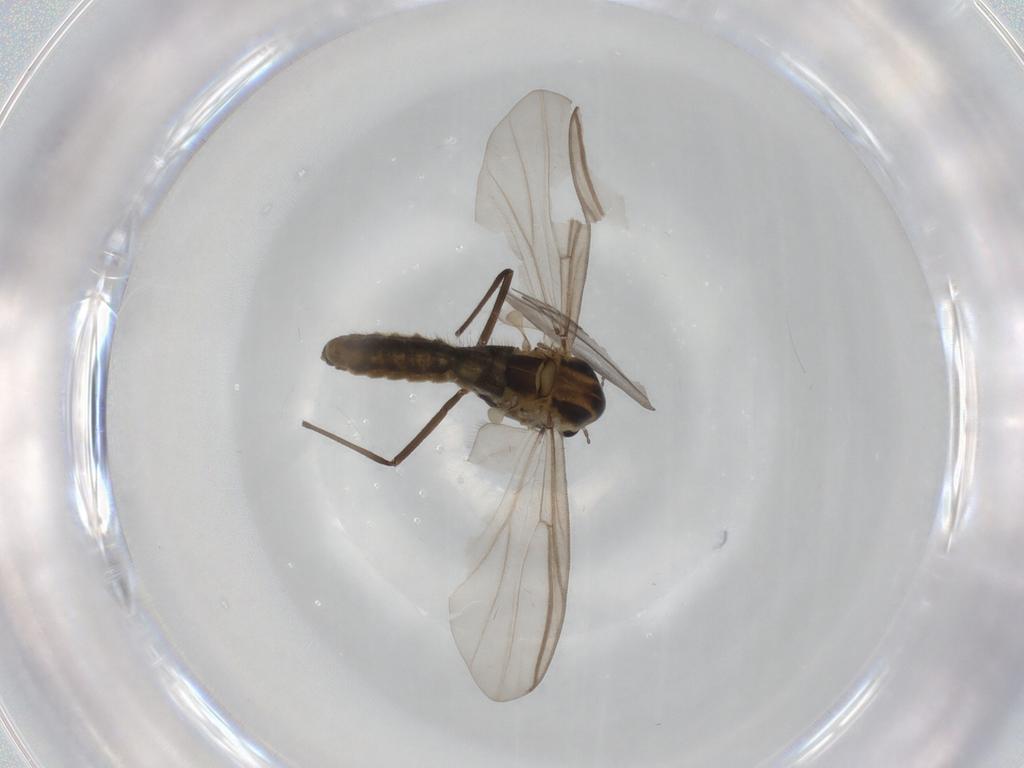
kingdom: Animalia
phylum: Arthropoda
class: Insecta
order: Diptera
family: Chironomidae
